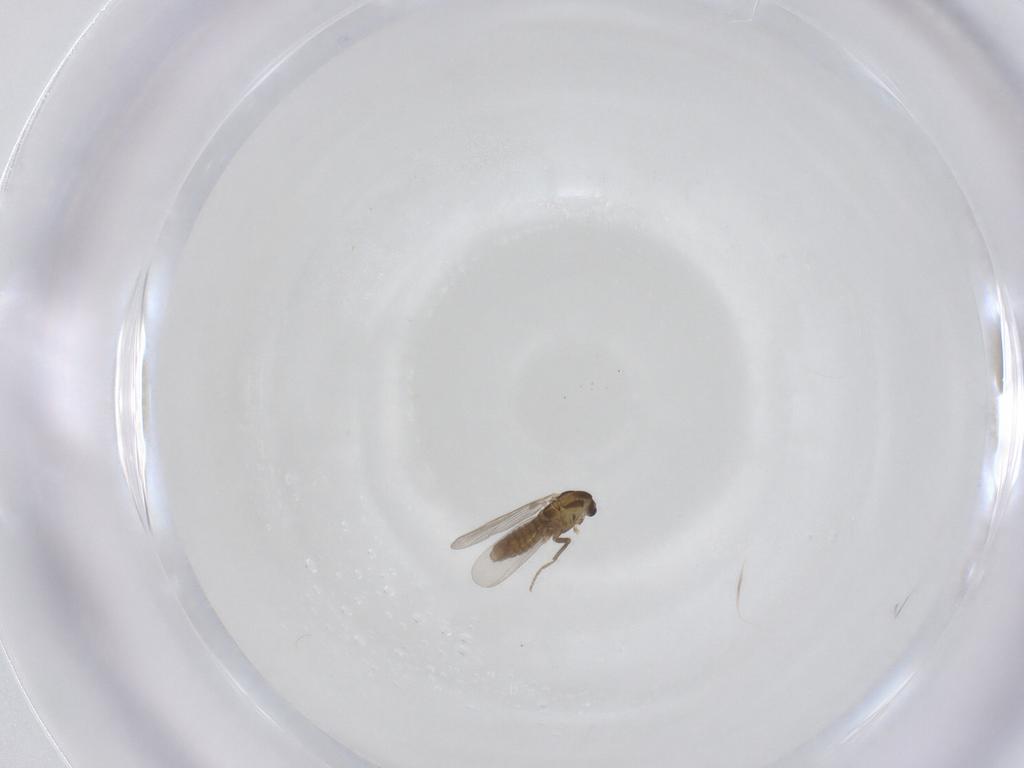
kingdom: Animalia
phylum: Arthropoda
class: Insecta
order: Diptera
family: Chironomidae
